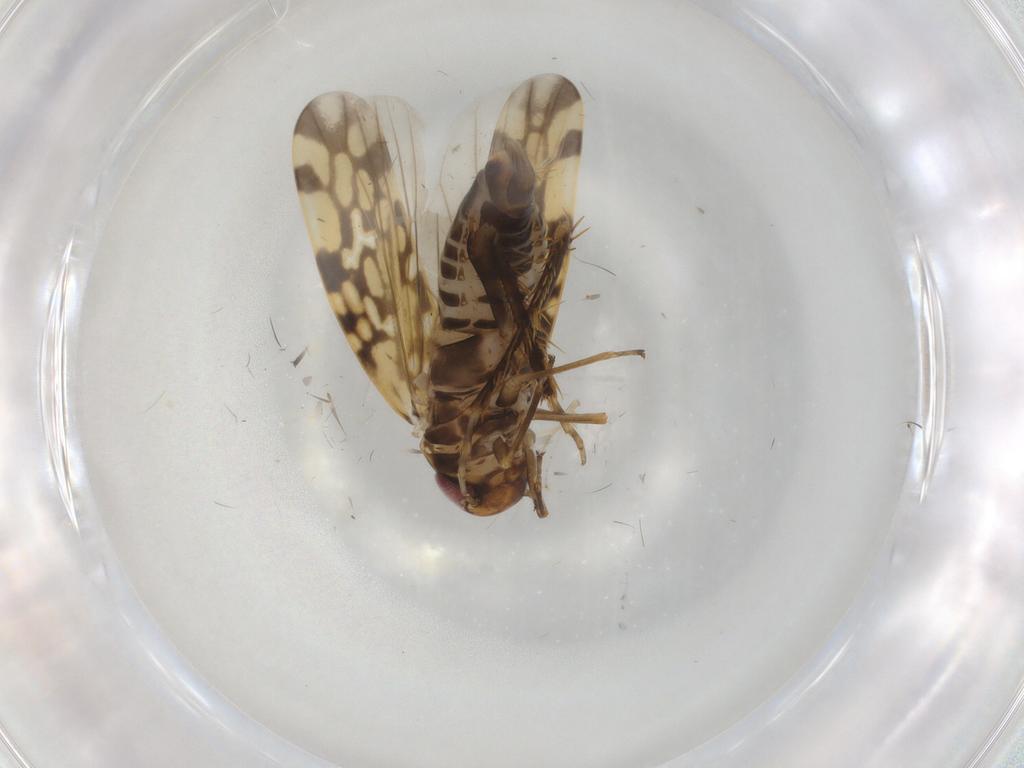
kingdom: Animalia
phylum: Arthropoda
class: Insecta
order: Hemiptera
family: Cicadellidae
